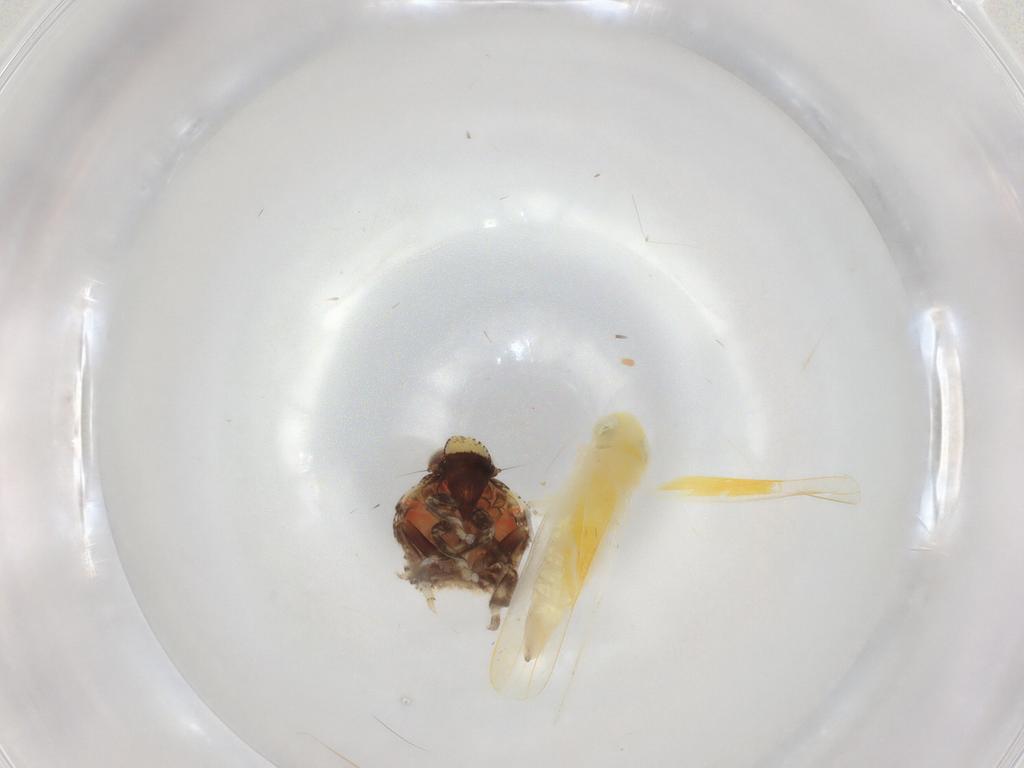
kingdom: Animalia
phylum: Arthropoda
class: Insecta
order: Hemiptera
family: Cicadellidae
